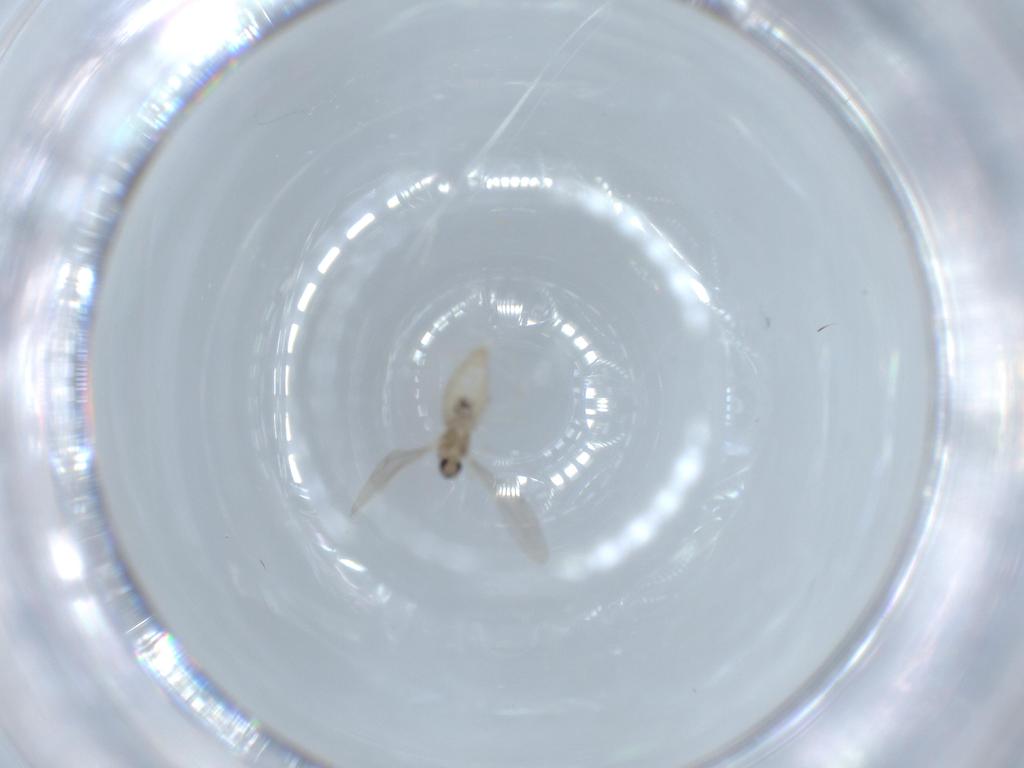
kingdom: Animalia
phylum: Arthropoda
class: Insecta
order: Diptera
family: Cecidomyiidae
